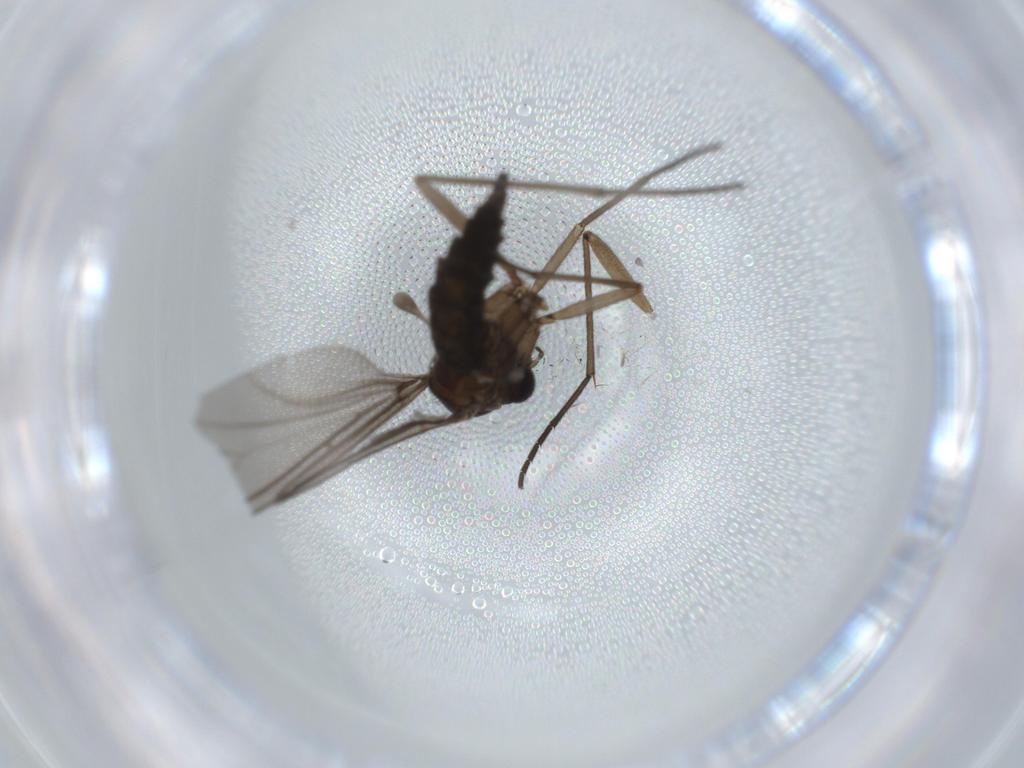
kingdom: Animalia
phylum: Arthropoda
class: Insecta
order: Diptera
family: Sciaridae
